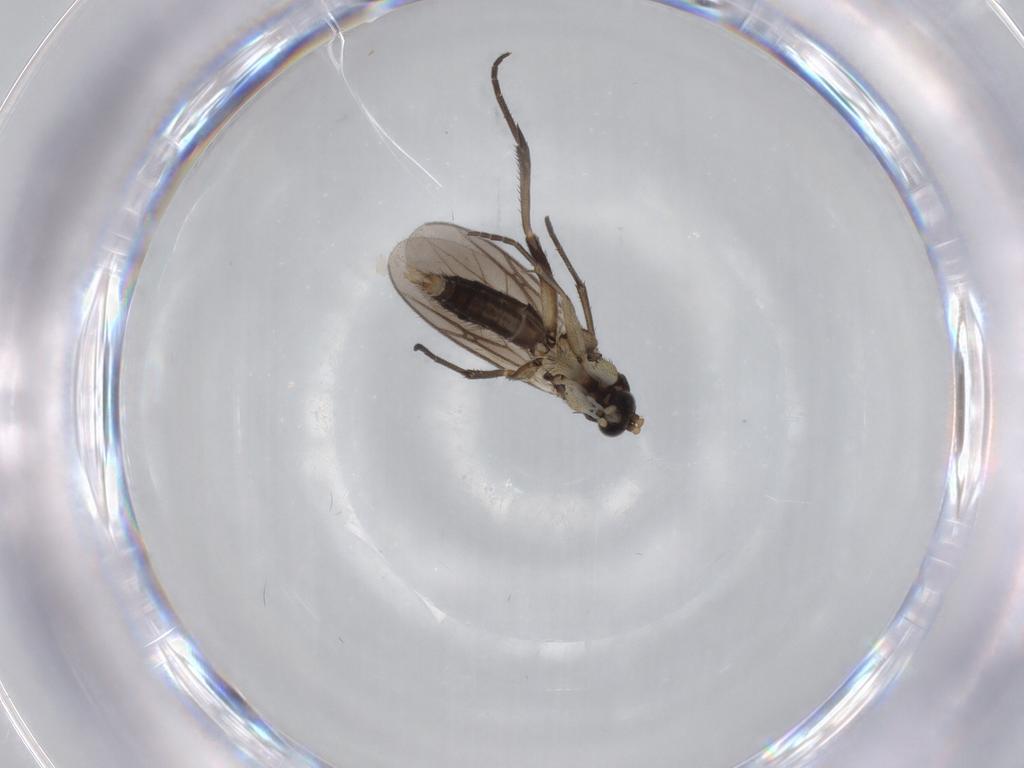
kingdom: Animalia
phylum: Arthropoda
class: Insecta
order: Diptera
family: Mycetophilidae
